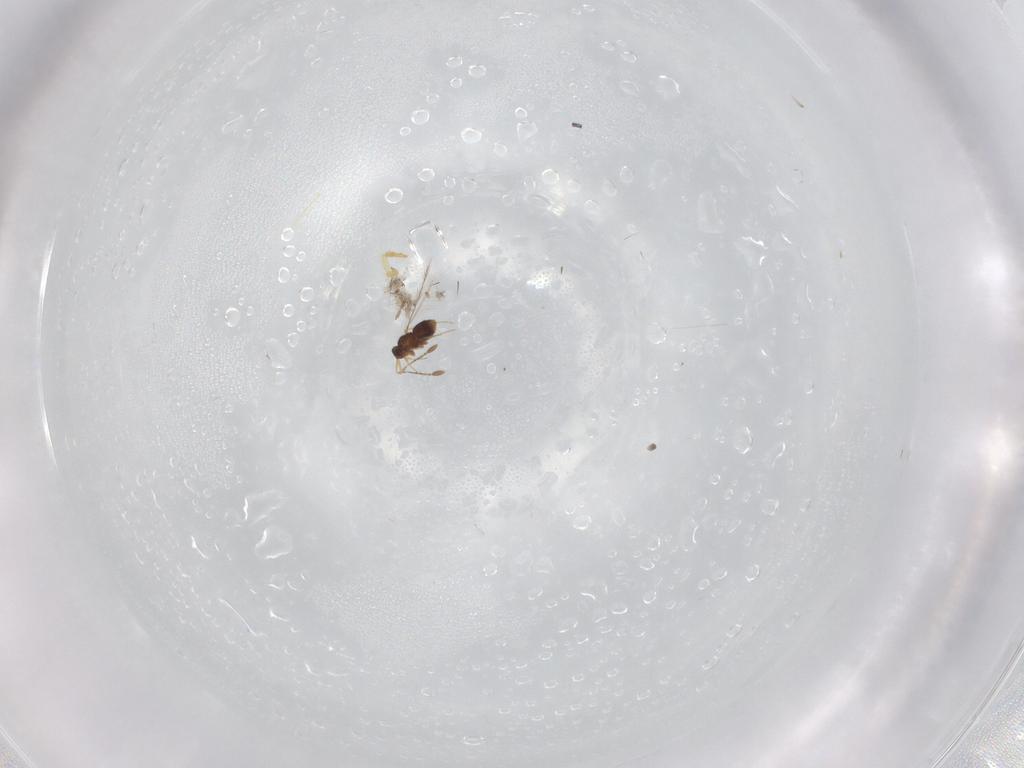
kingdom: Animalia
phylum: Arthropoda
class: Insecta
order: Hymenoptera
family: Ichneumonidae
